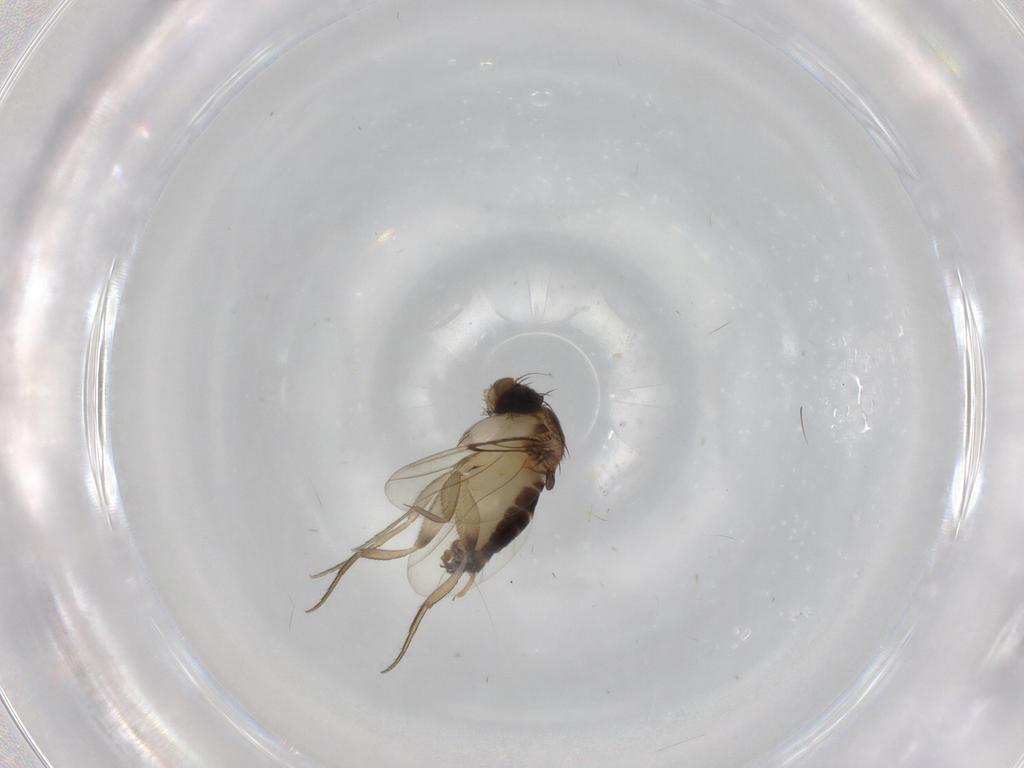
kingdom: Animalia
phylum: Arthropoda
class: Insecta
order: Diptera
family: Phoridae
